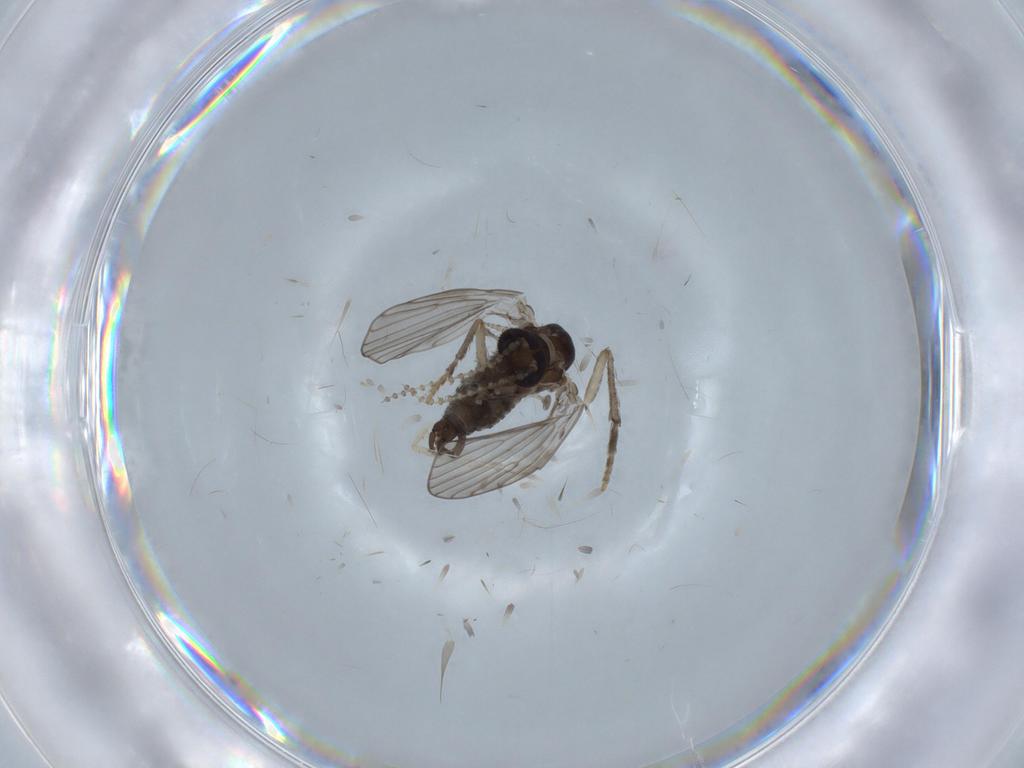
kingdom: Animalia
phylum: Arthropoda
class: Insecta
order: Diptera
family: Psychodidae
